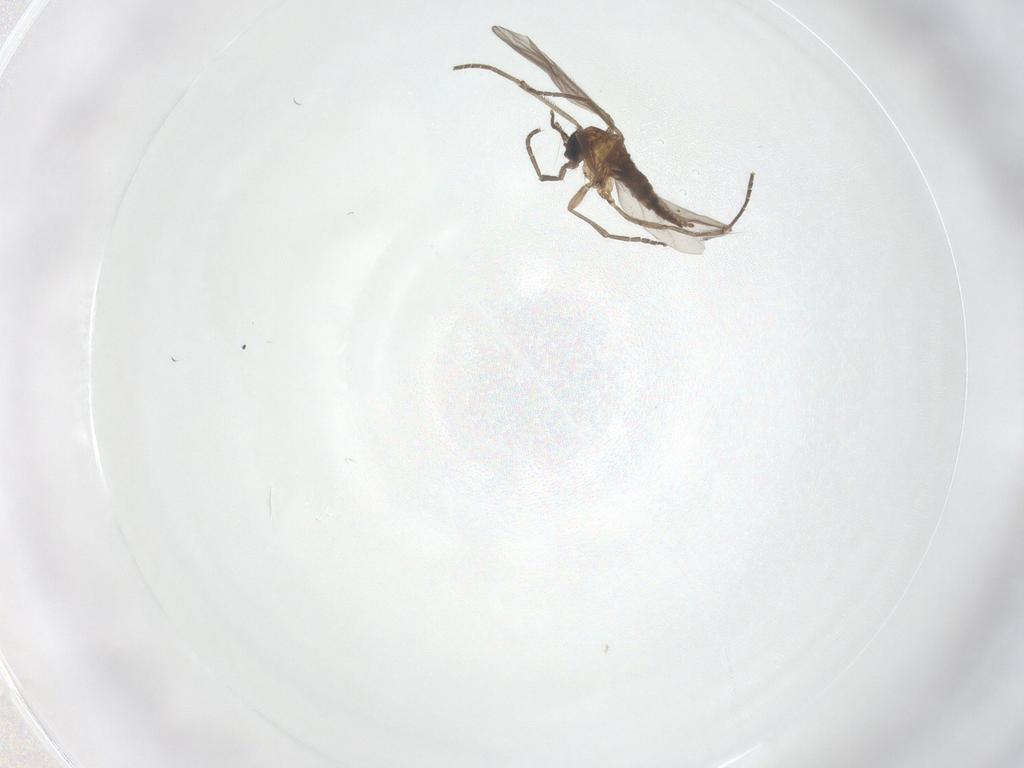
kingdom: Animalia
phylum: Arthropoda
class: Insecta
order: Diptera
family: Sciaridae
